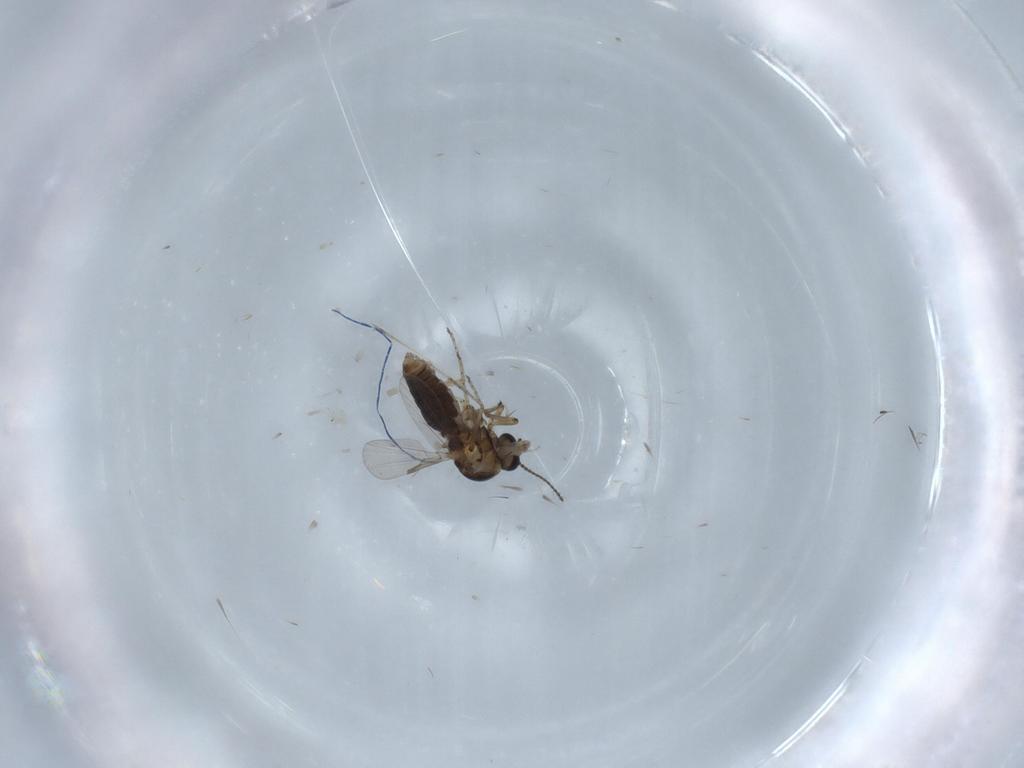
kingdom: Animalia
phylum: Arthropoda
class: Insecta
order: Diptera
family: Ceratopogonidae
